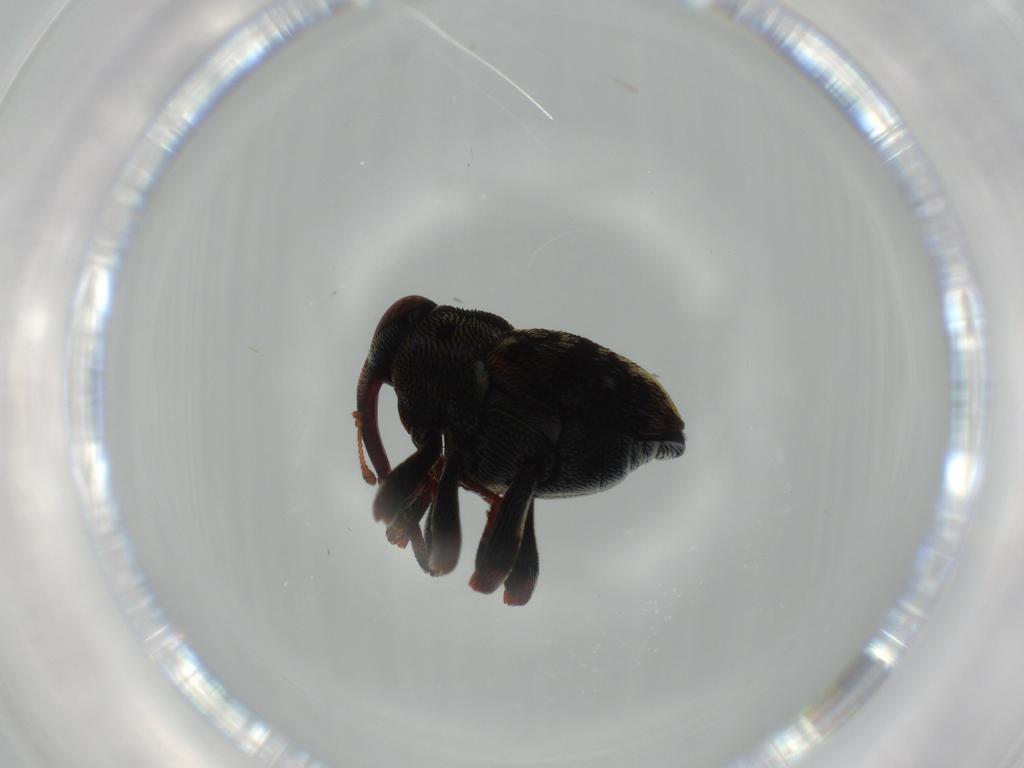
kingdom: Animalia
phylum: Arthropoda
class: Insecta
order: Coleoptera
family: Curculionidae
